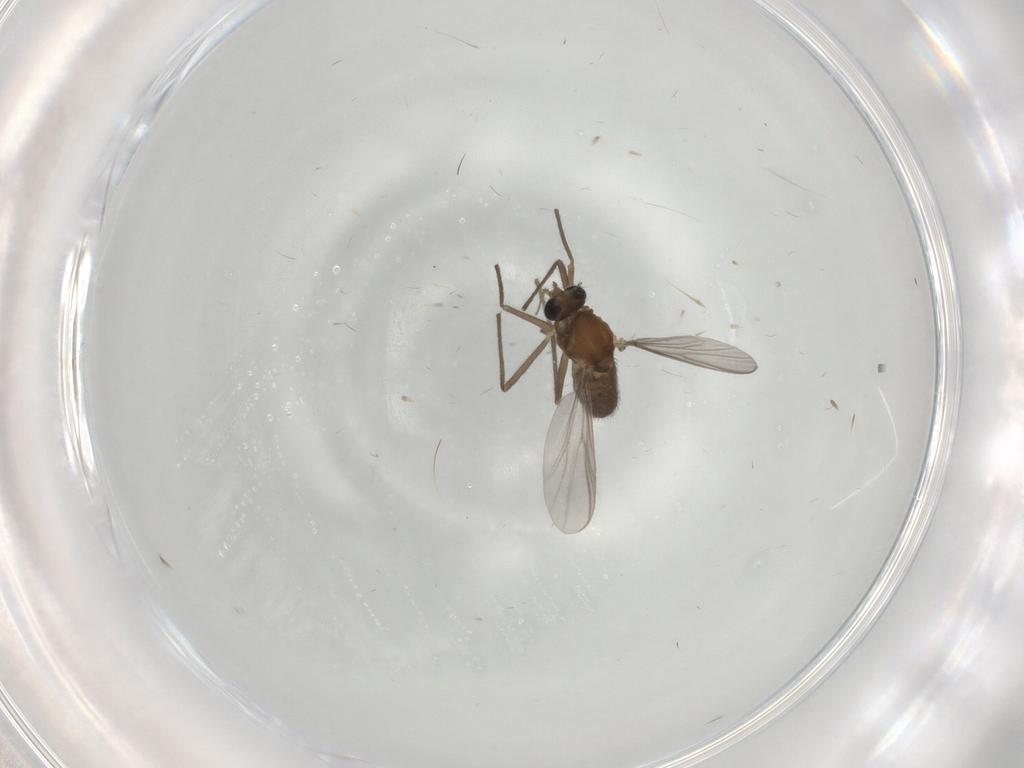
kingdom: Animalia
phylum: Arthropoda
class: Insecta
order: Diptera
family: Chironomidae
